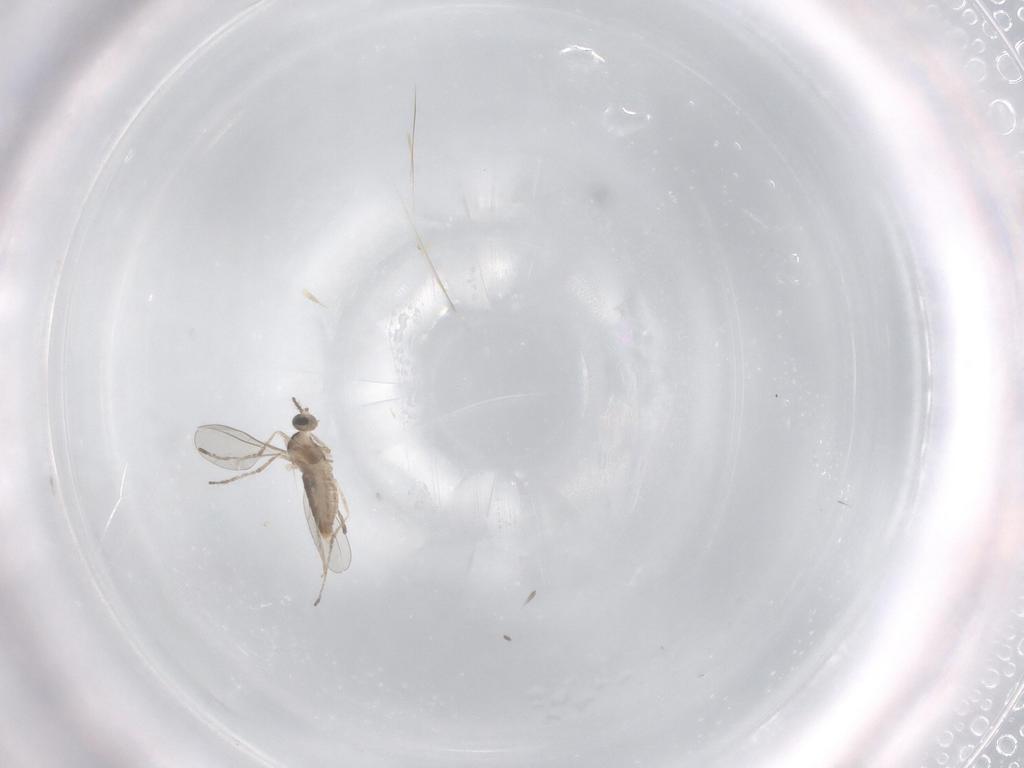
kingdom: Animalia
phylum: Arthropoda
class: Insecta
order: Diptera
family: Cecidomyiidae
